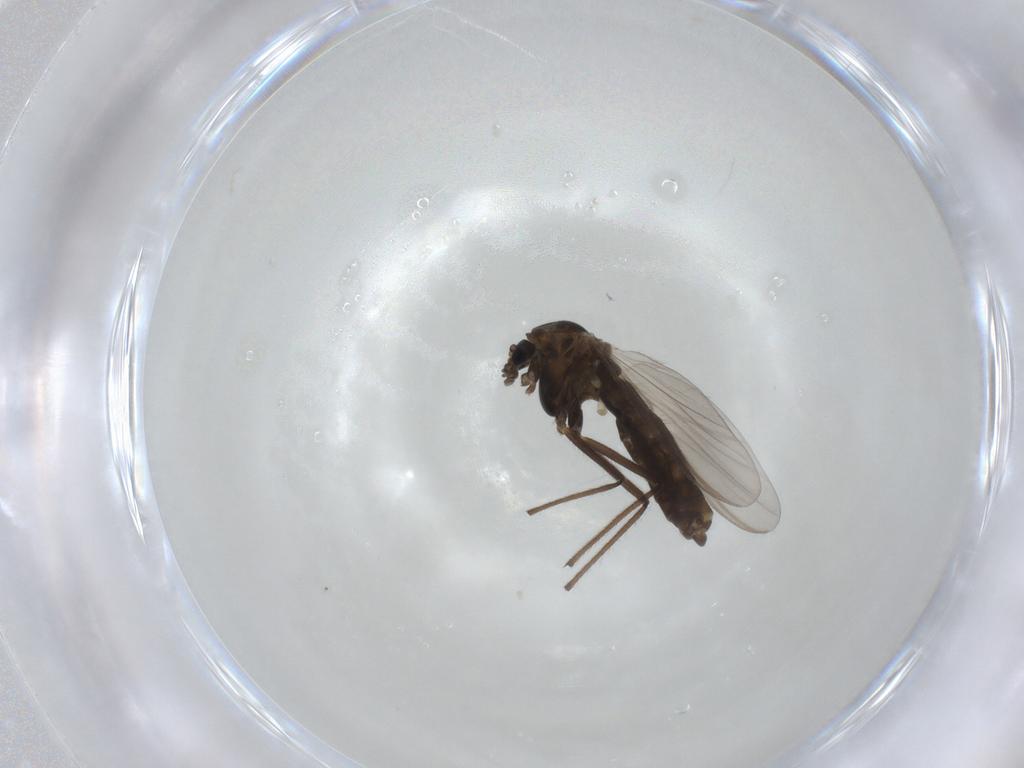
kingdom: Animalia
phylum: Arthropoda
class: Insecta
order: Diptera
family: Chironomidae
